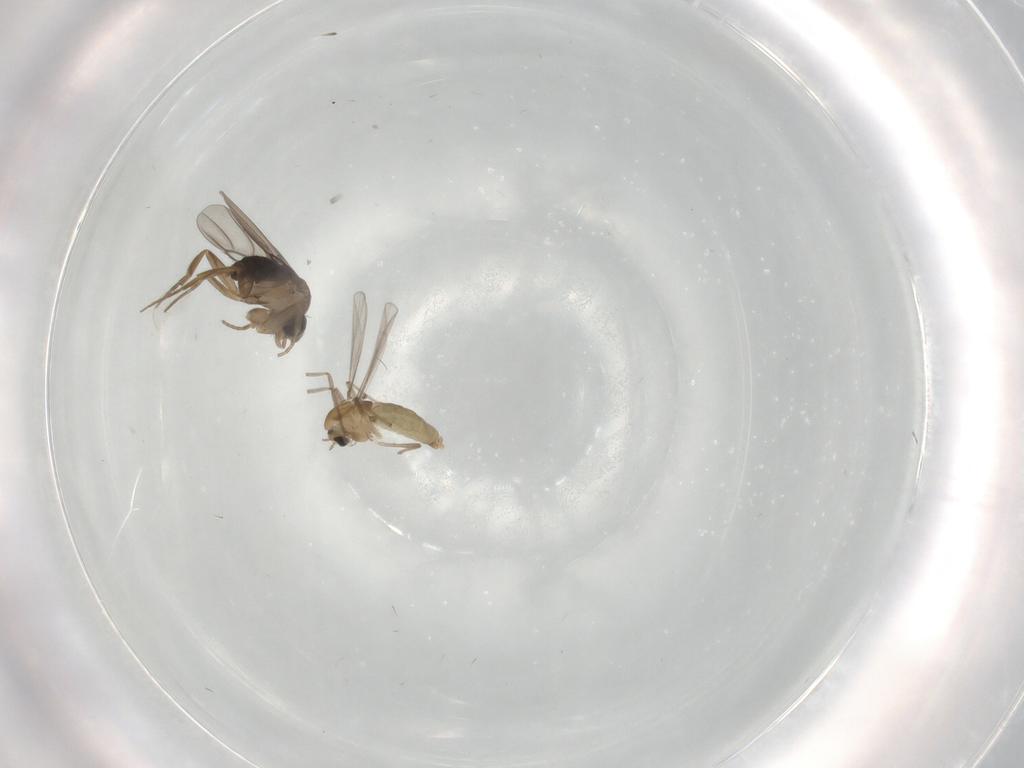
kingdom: Animalia
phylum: Arthropoda
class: Insecta
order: Diptera
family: Chironomidae
